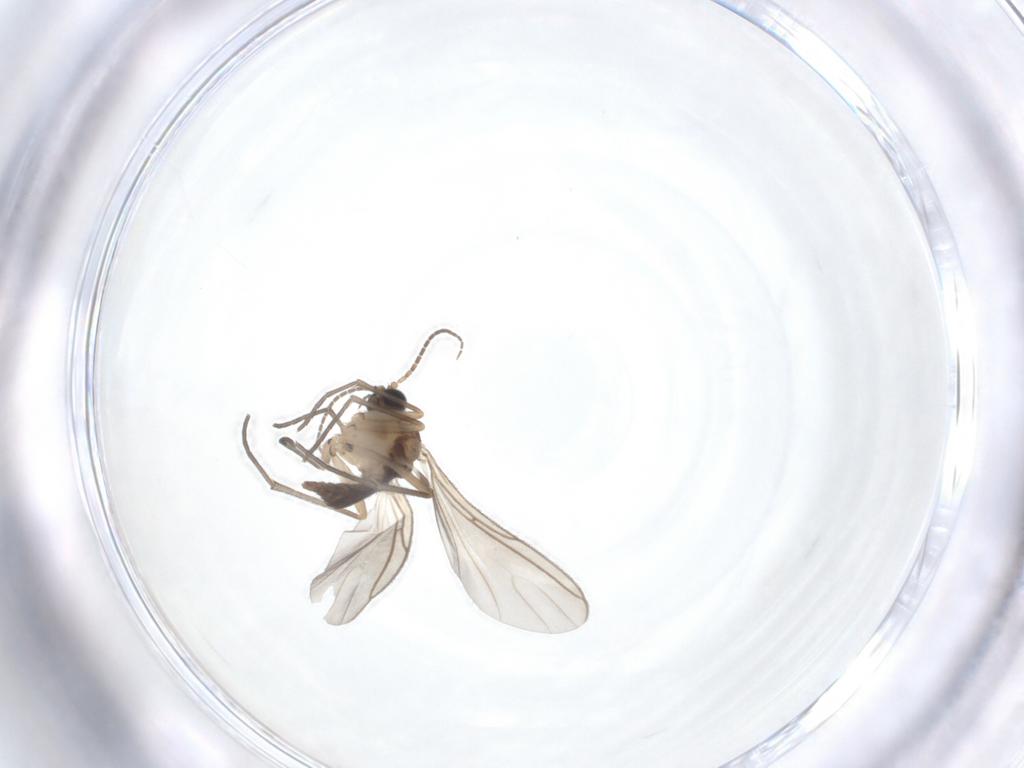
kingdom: Animalia
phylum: Arthropoda
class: Insecta
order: Diptera
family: Sciaridae
